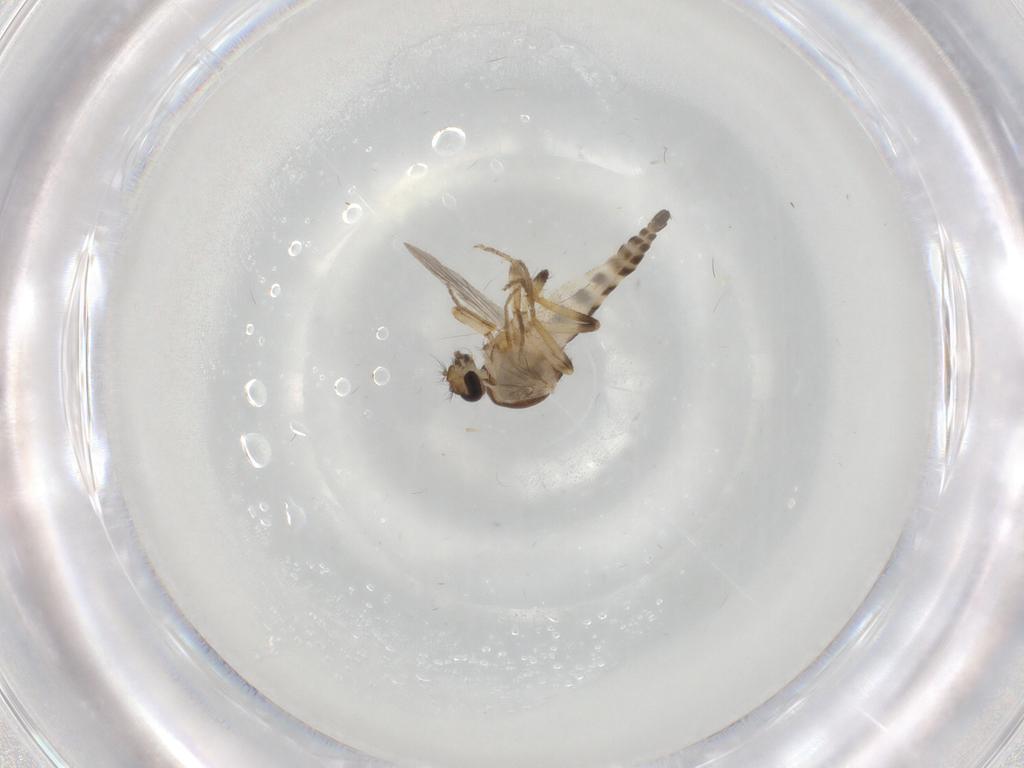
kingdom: Animalia
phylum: Arthropoda
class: Insecta
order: Diptera
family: Ceratopogonidae
